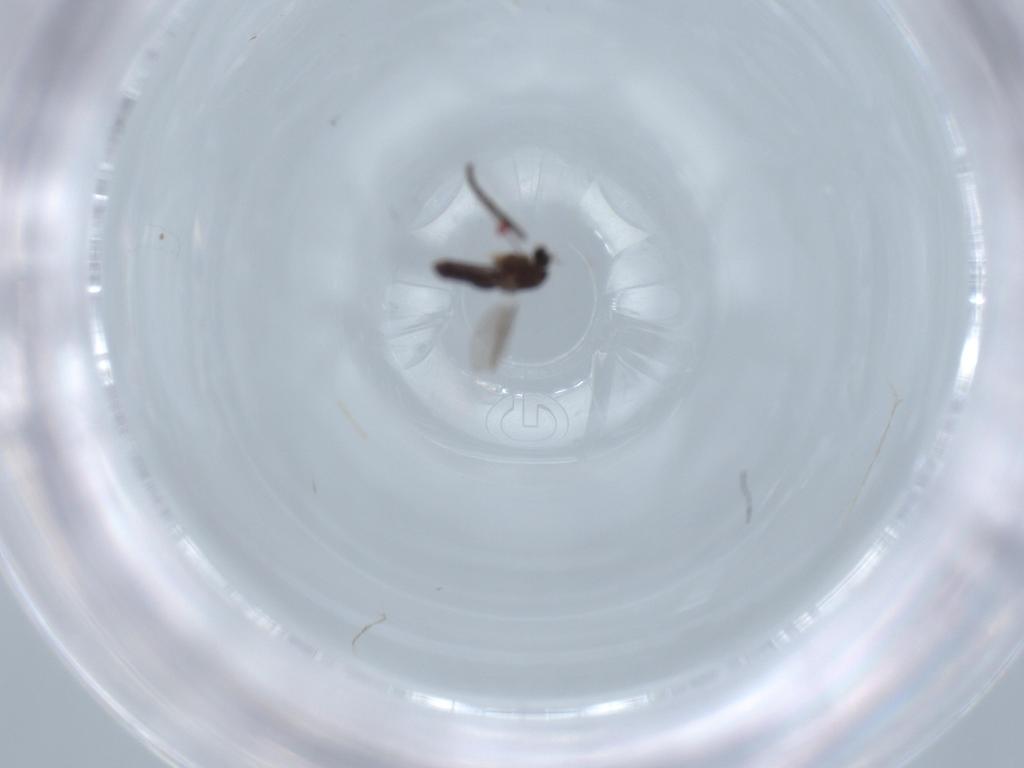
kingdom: Animalia
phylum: Arthropoda
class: Insecta
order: Diptera
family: Chironomidae
